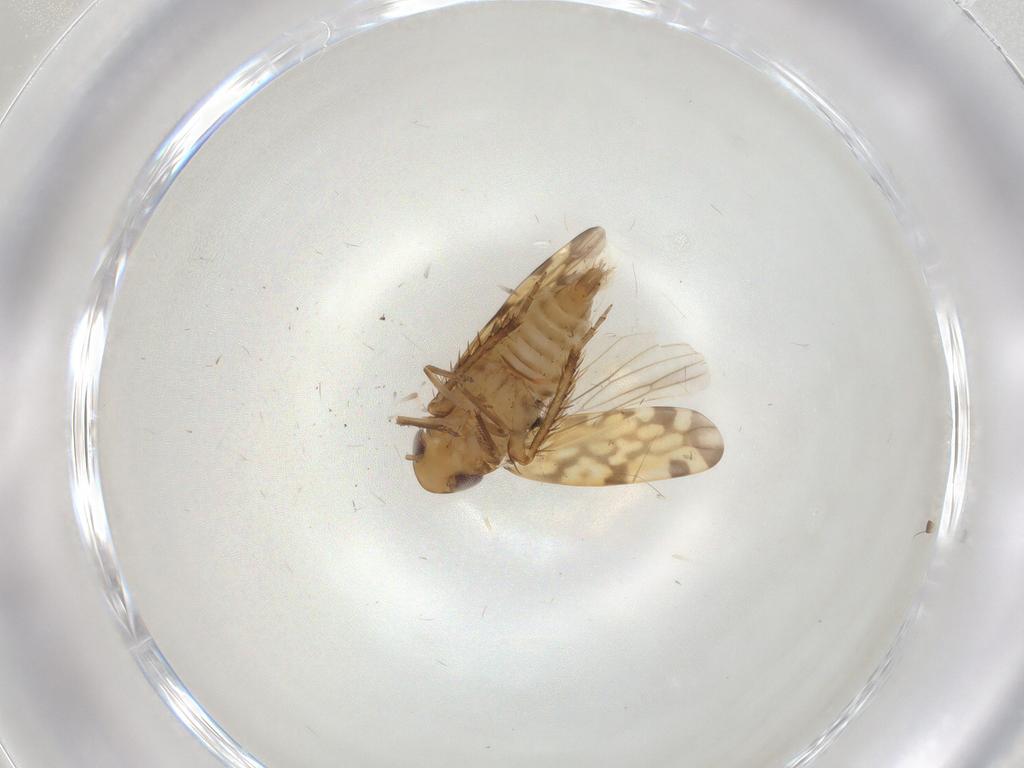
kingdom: Animalia
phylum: Arthropoda
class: Insecta
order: Hemiptera
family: Cicadellidae
